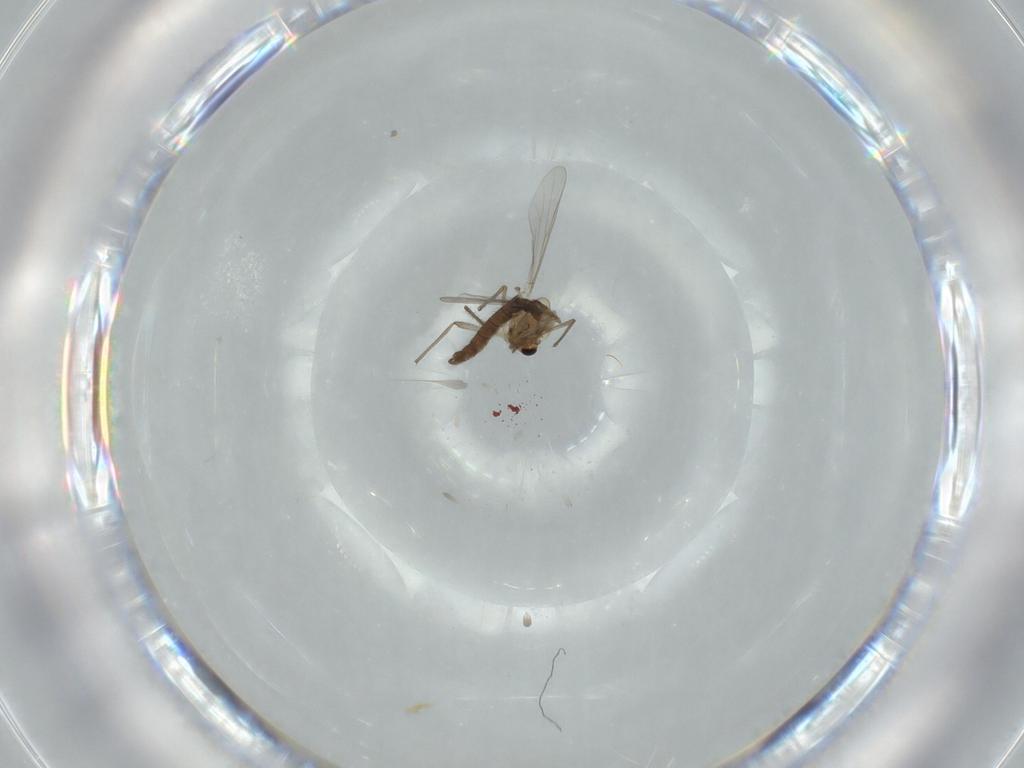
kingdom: Animalia
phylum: Arthropoda
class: Insecta
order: Diptera
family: Chironomidae
